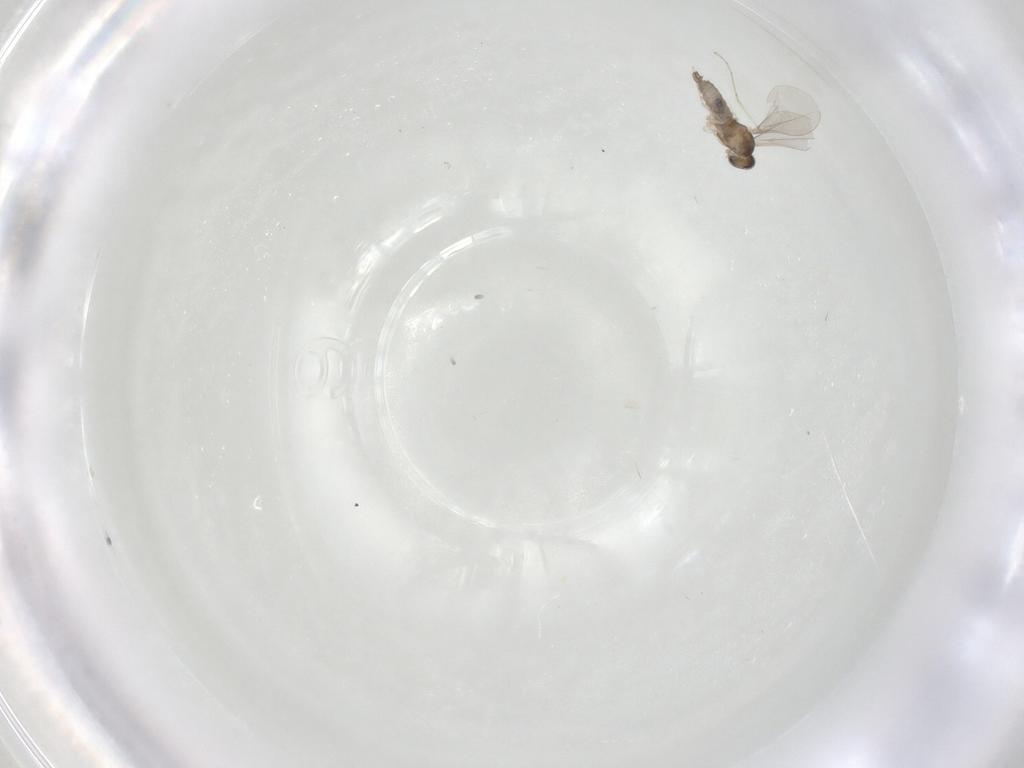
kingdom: Animalia
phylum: Arthropoda
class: Insecta
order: Diptera
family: Cecidomyiidae
